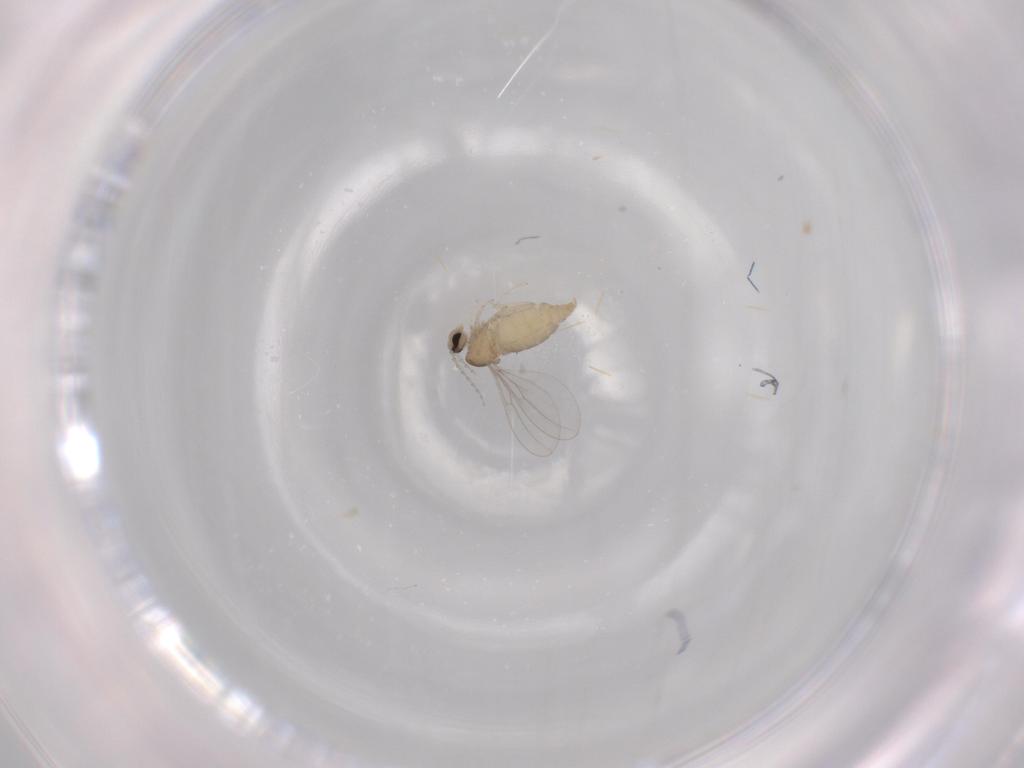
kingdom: Animalia
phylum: Arthropoda
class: Insecta
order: Diptera
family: Cecidomyiidae
